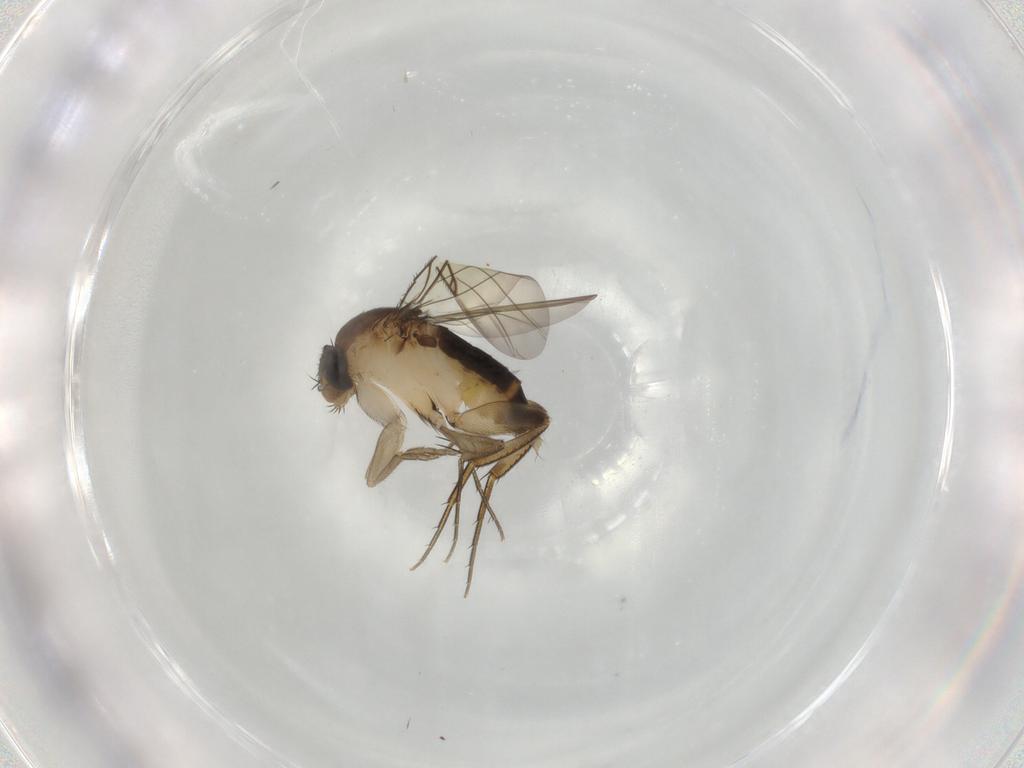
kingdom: Animalia
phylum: Arthropoda
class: Insecta
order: Diptera
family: Phoridae
